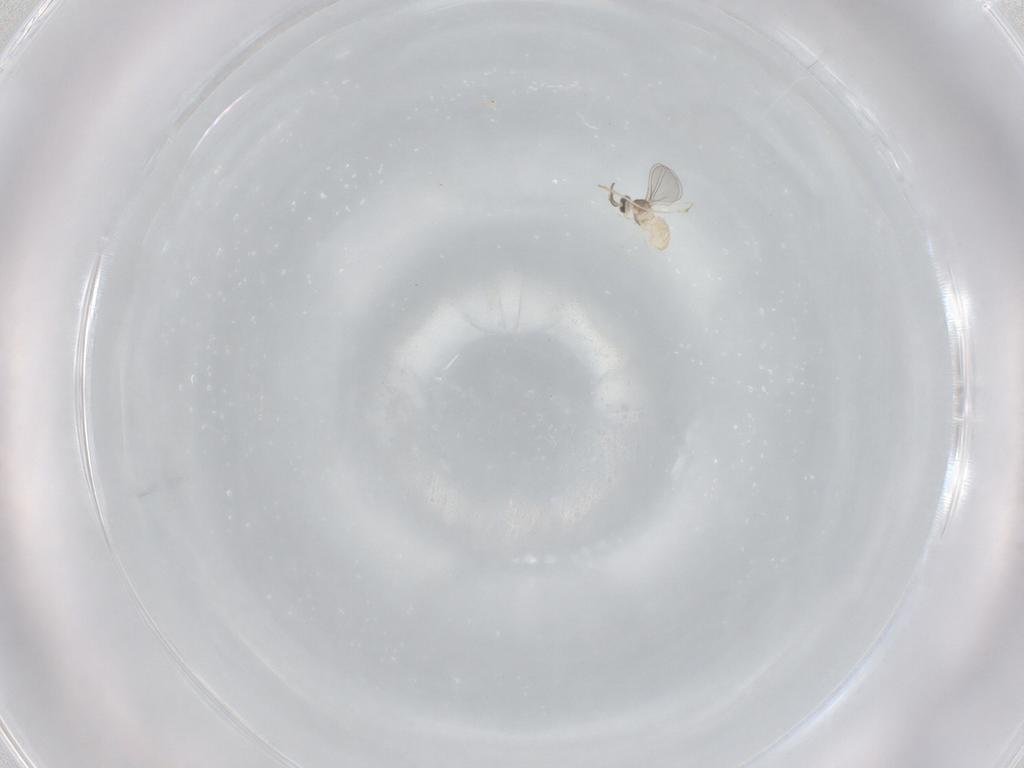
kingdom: Animalia
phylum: Arthropoda
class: Insecta
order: Diptera
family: Cecidomyiidae
